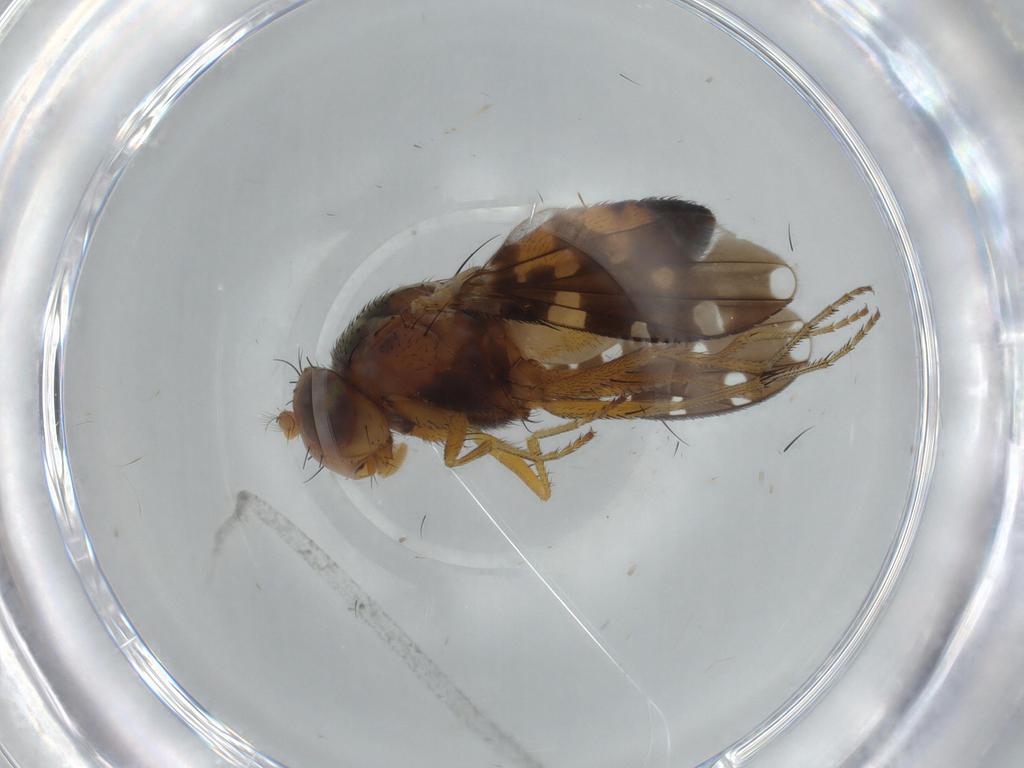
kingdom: Animalia
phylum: Arthropoda
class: Insecta
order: Diptera
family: Ephydridae
